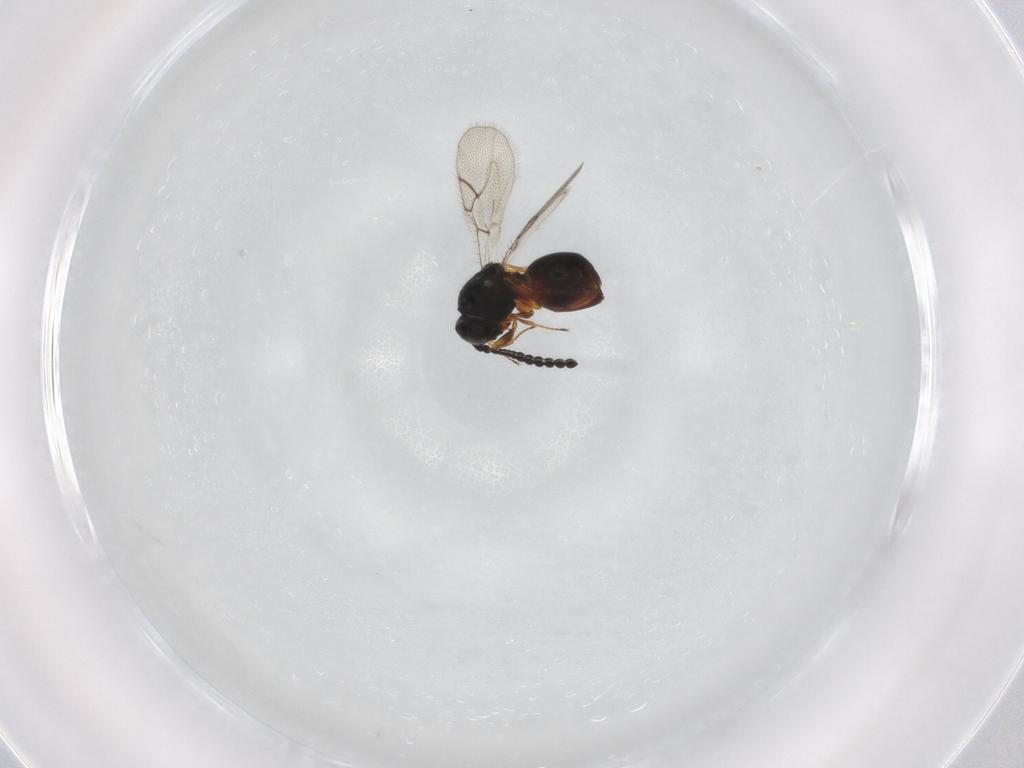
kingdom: Animalia
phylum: Arthropoda
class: Insecta
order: Hymenoptera
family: Figitidae
